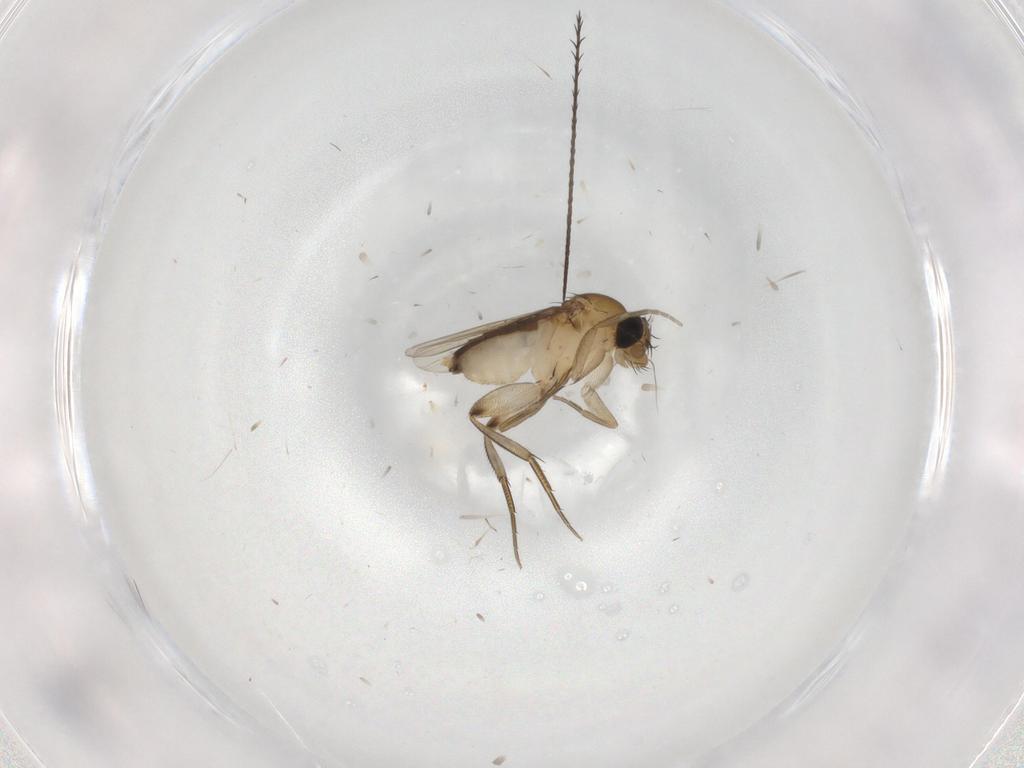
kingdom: Animalia
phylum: Arthropoda
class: Insecta
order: Diptera
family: Phoridae
